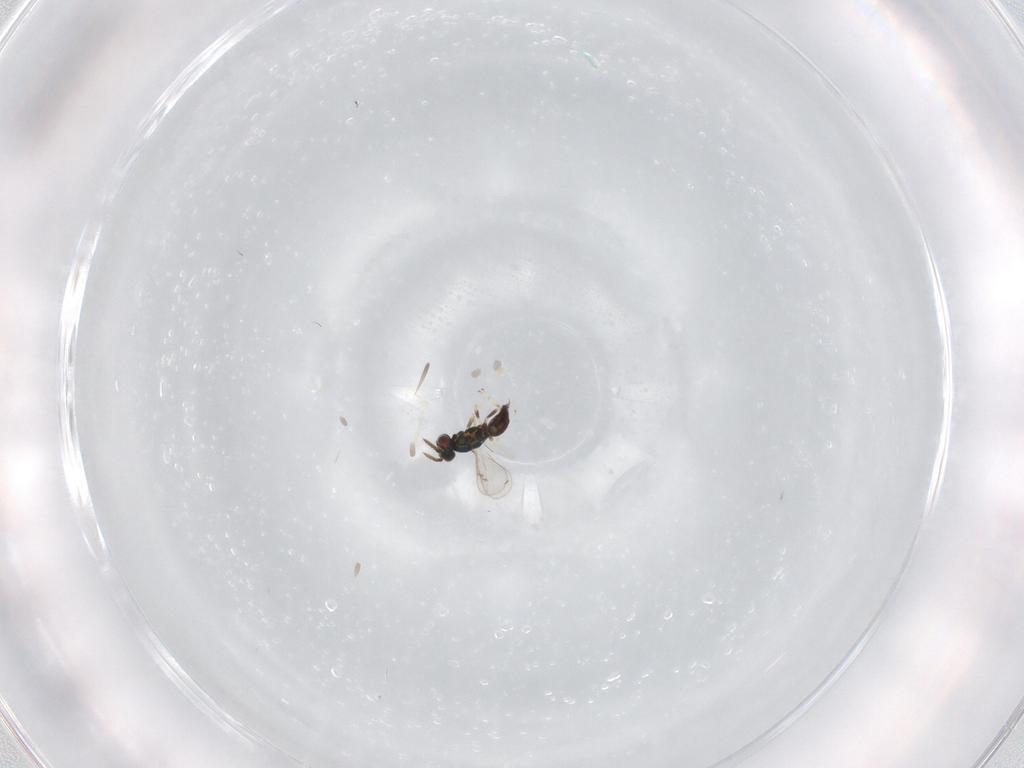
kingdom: Animalia
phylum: Arthropoda
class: Insecta
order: Hymenoptera
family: Eulophidae
